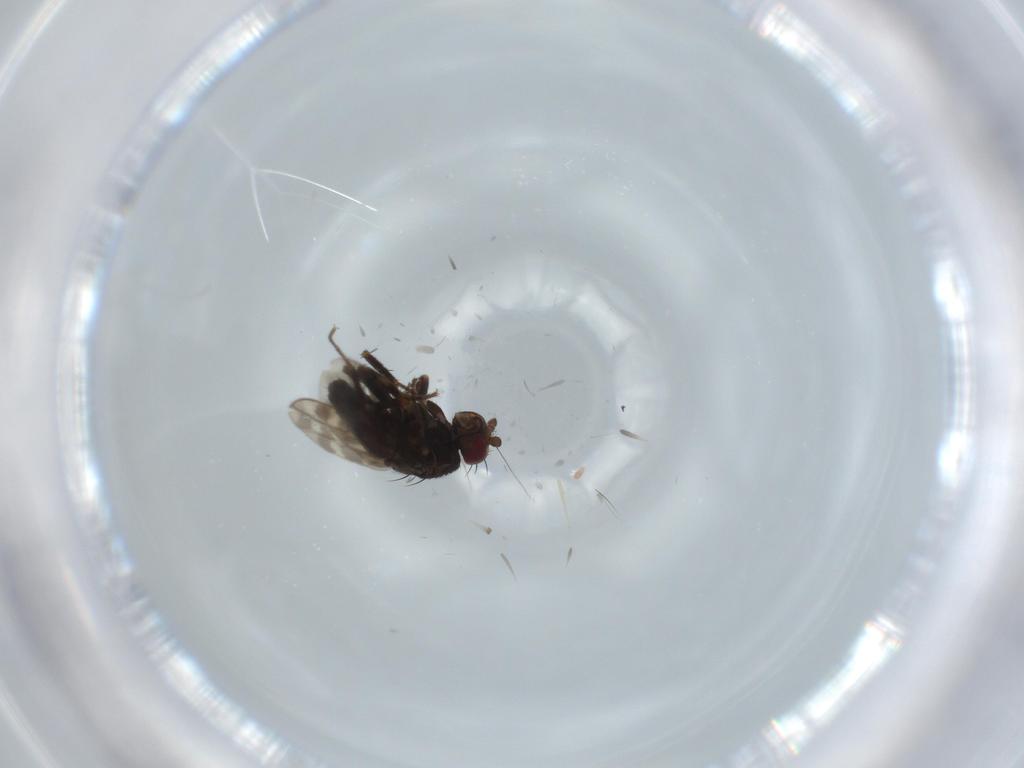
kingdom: Animalia
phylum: Arthropoda
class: Insecta
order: Diptera
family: Sphaeroceridae
